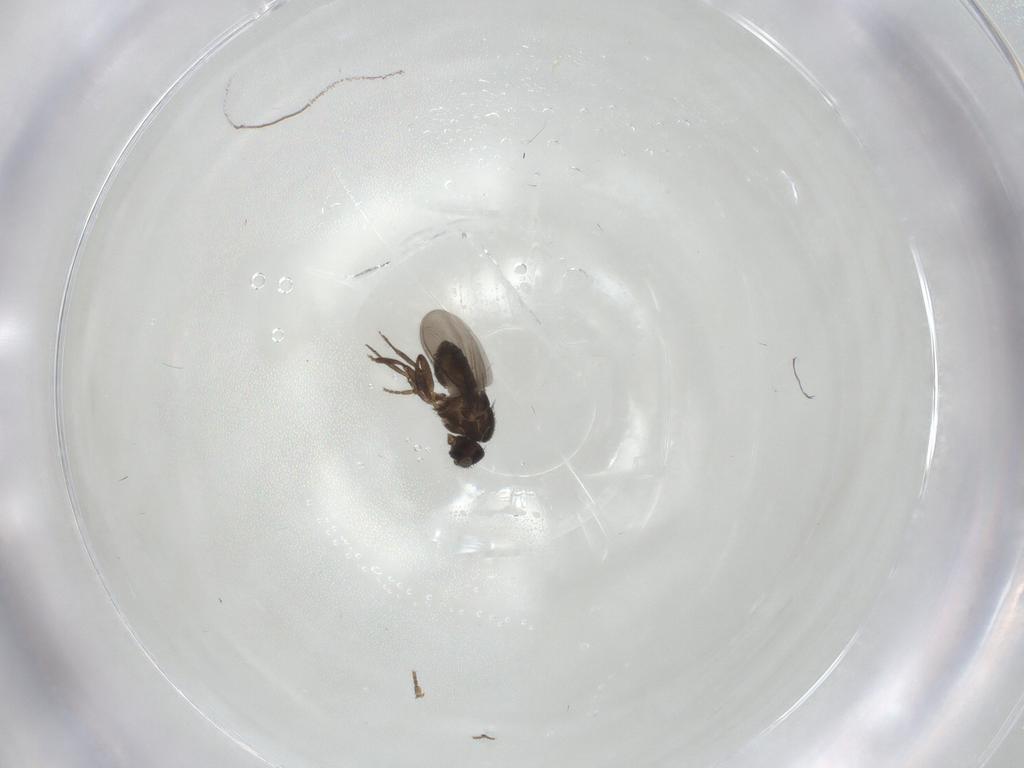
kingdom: Animalia
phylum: Arthropoda
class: Insecta
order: Diptera
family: Sphaeroceridae
